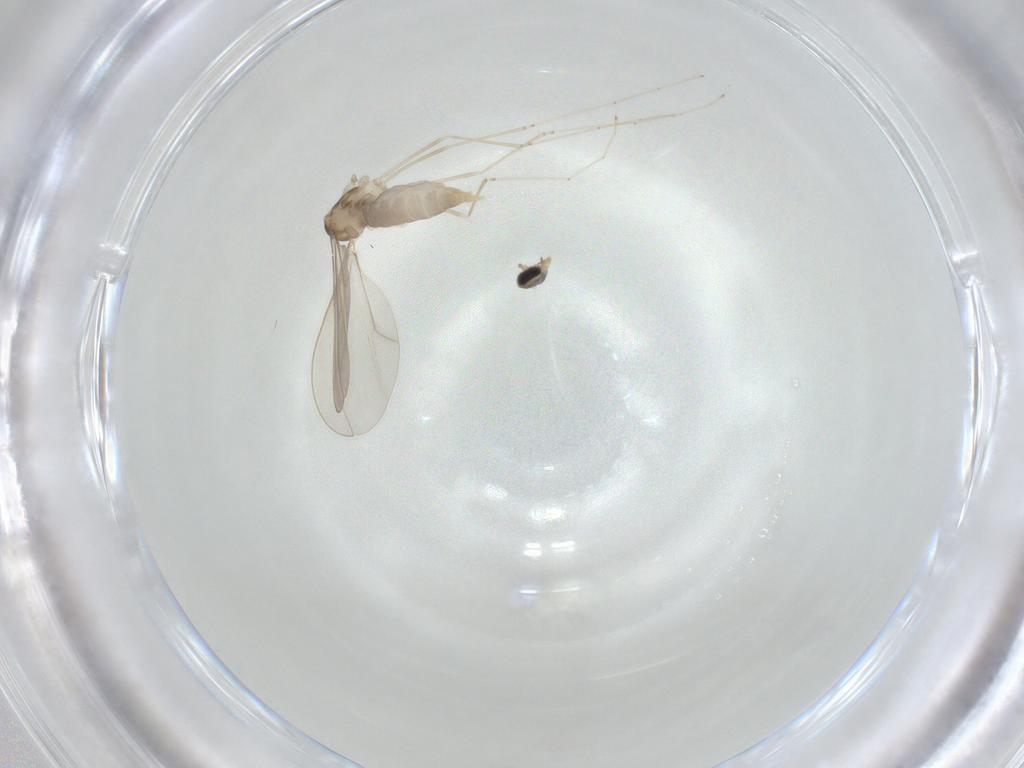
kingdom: Animalia
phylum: Arthropoda
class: Insecta
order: Diptera
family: Cecidomyiidae
